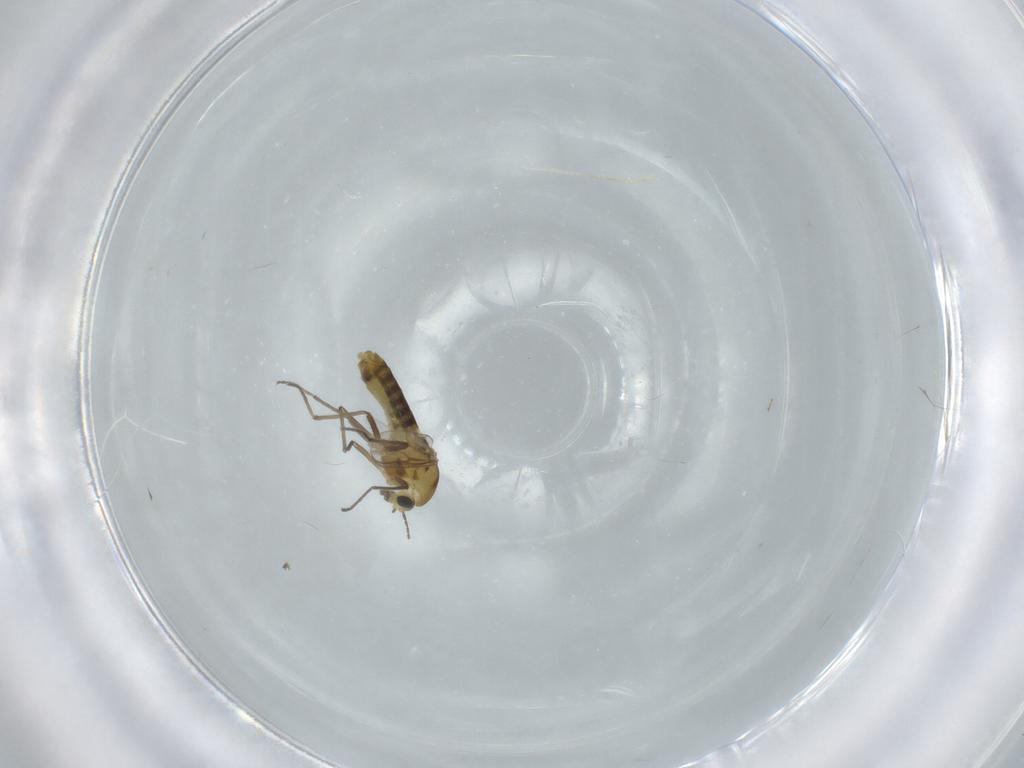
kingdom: Animalia
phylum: Arthropoda
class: Insecta
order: Diptera
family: Chironomidae
